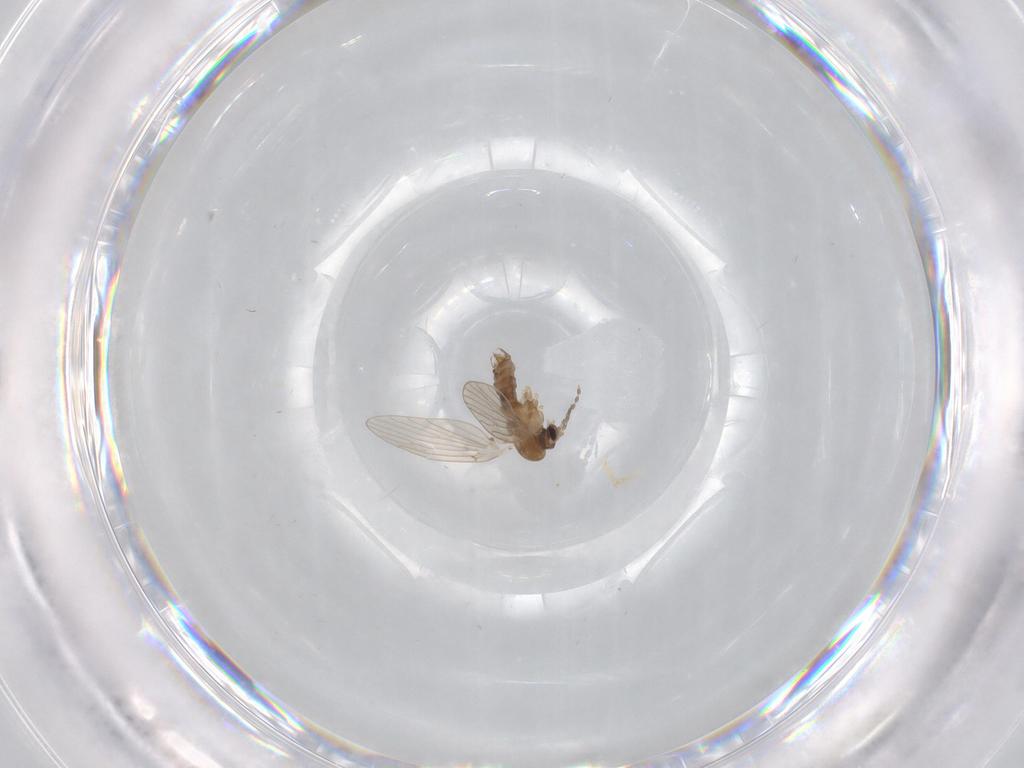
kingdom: Animalia
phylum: Arthropoda
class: Insecta
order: Diptera
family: Psychodidae
